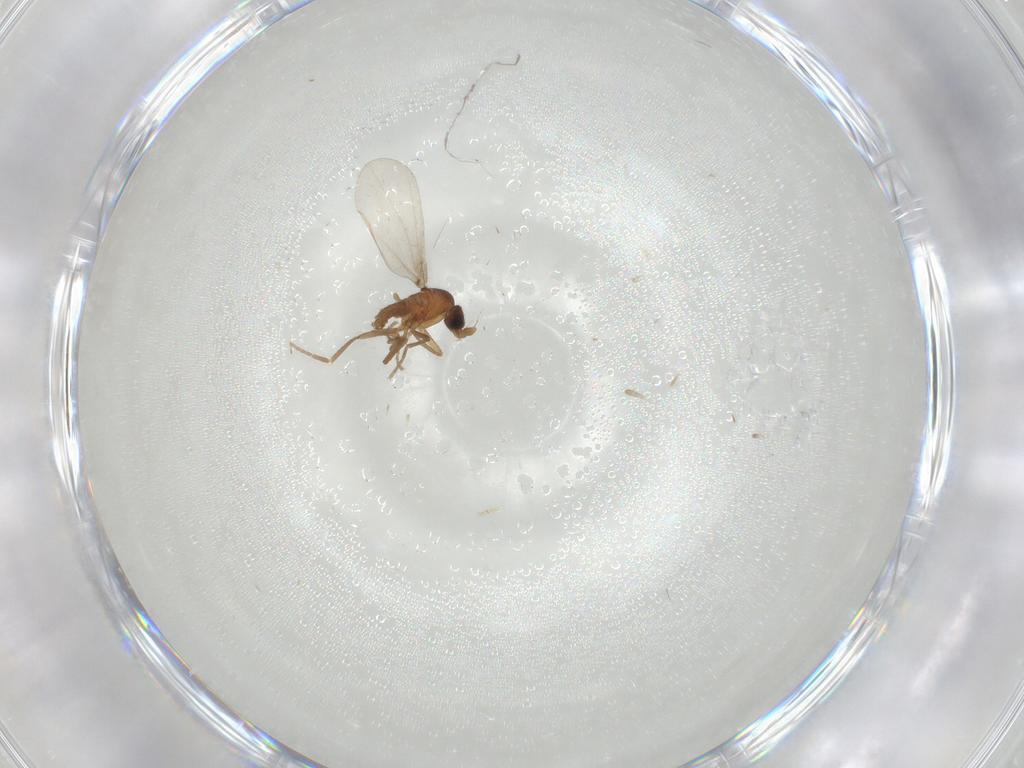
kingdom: Animalia
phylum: Arthropoda
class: Insecta
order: Diptera
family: Phoridae
